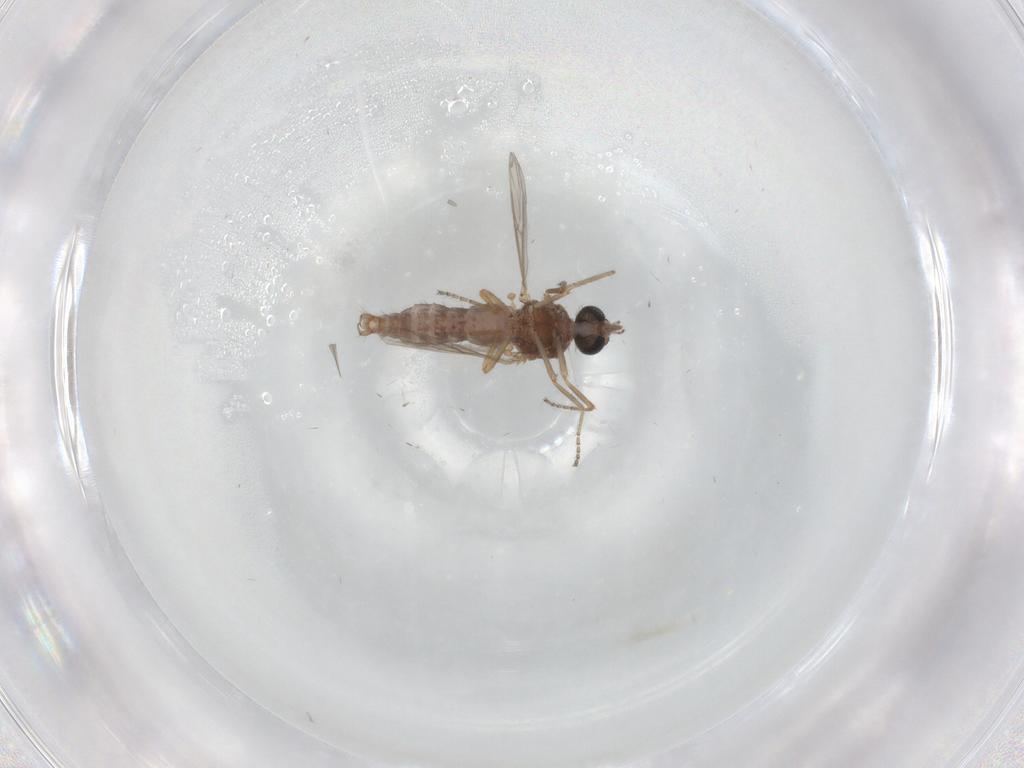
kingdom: Animalia
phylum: Arthropoda
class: Insecta
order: Diptera
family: Ceratopogonidae
